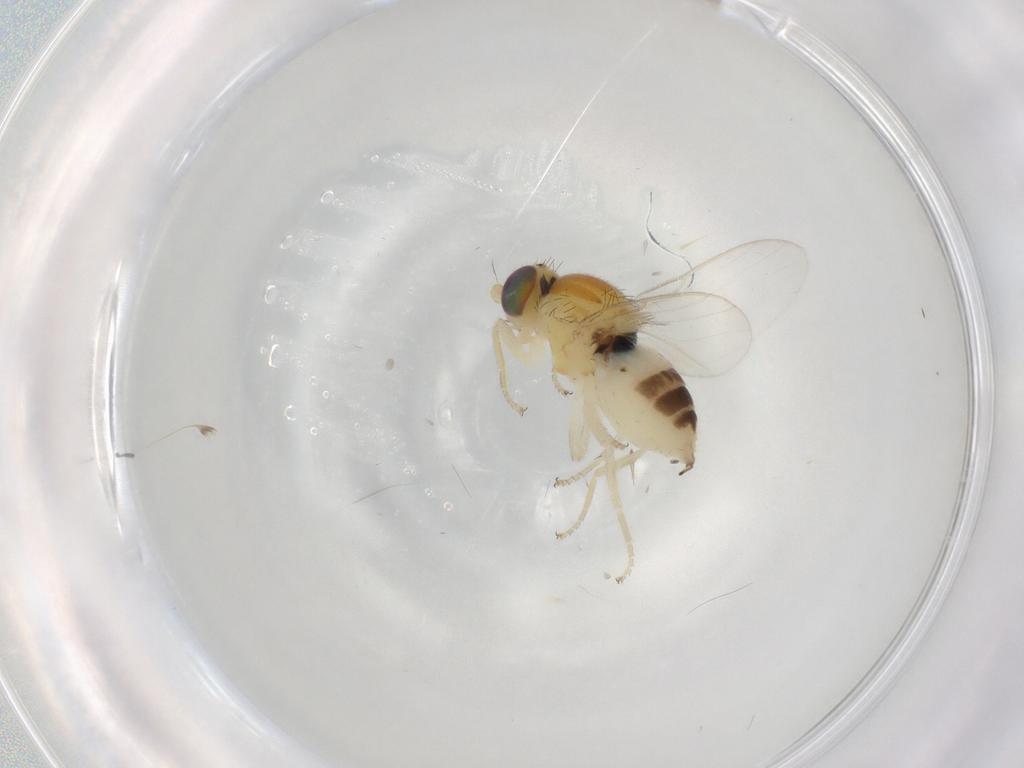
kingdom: Animalia
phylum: Arthropoda
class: Insecta
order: Diptera
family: Chloropidae
